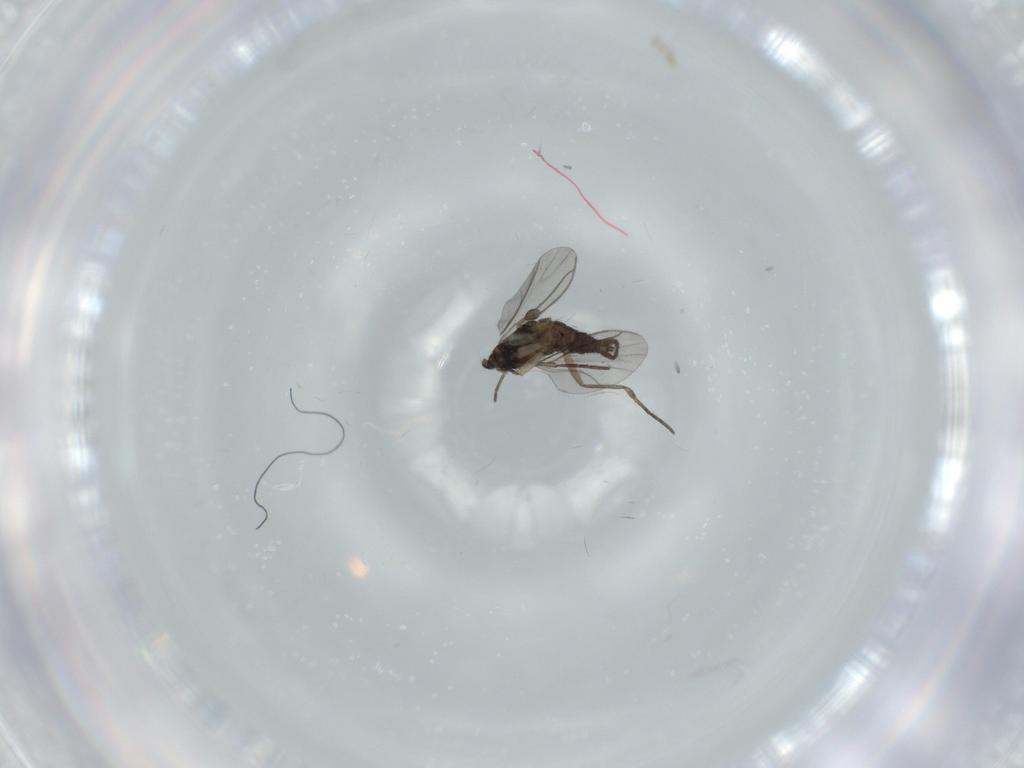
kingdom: Animalia
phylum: Arthropoda
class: Insecta
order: Diptera
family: Sciaridae
